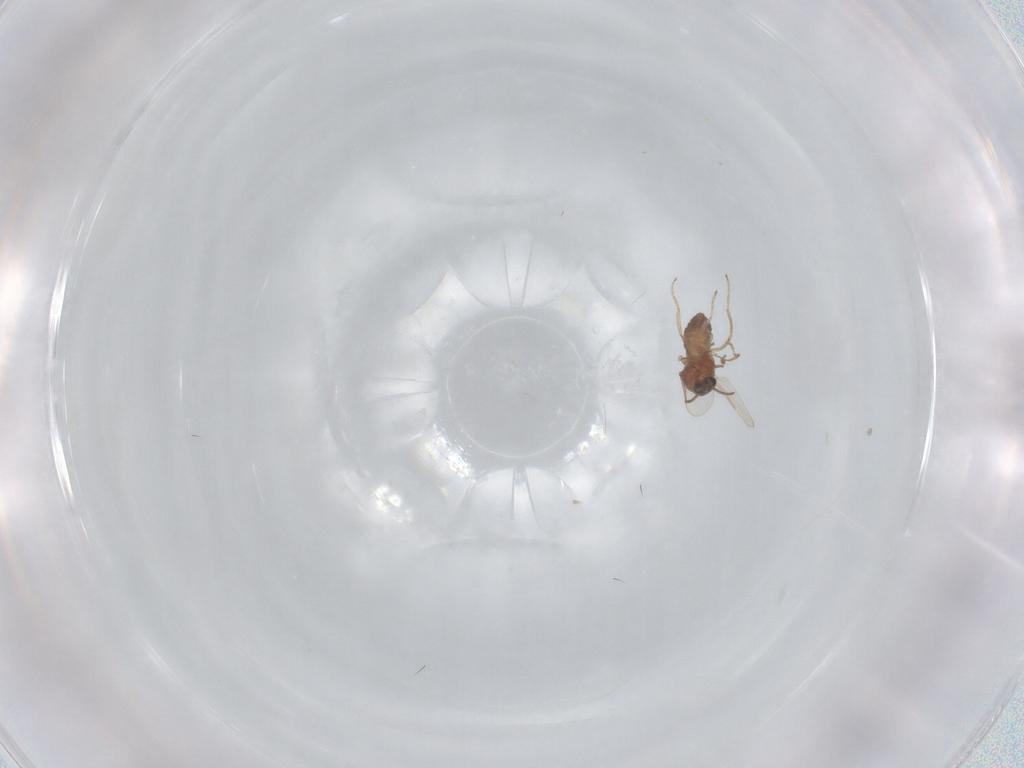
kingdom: Animalia
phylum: Arthropoda
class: Insecta
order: Diptera
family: Ceratopogonidae
